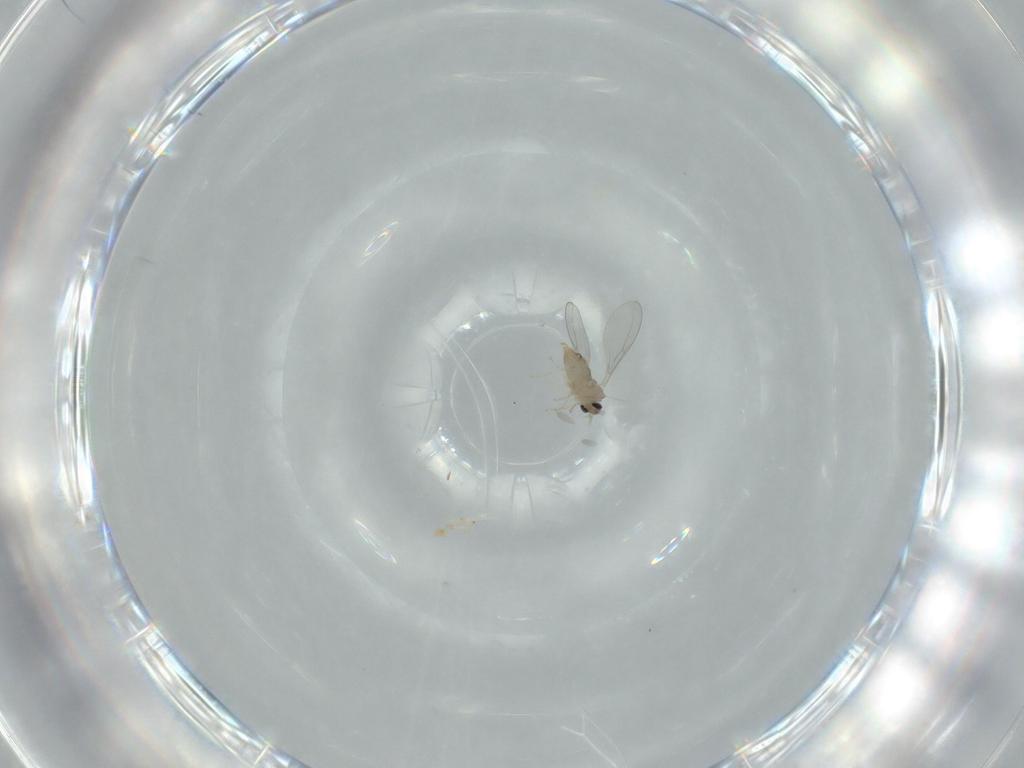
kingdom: Animalia
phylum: Arthropoda
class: Insecta
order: Diptera
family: Cecidomyiidae
